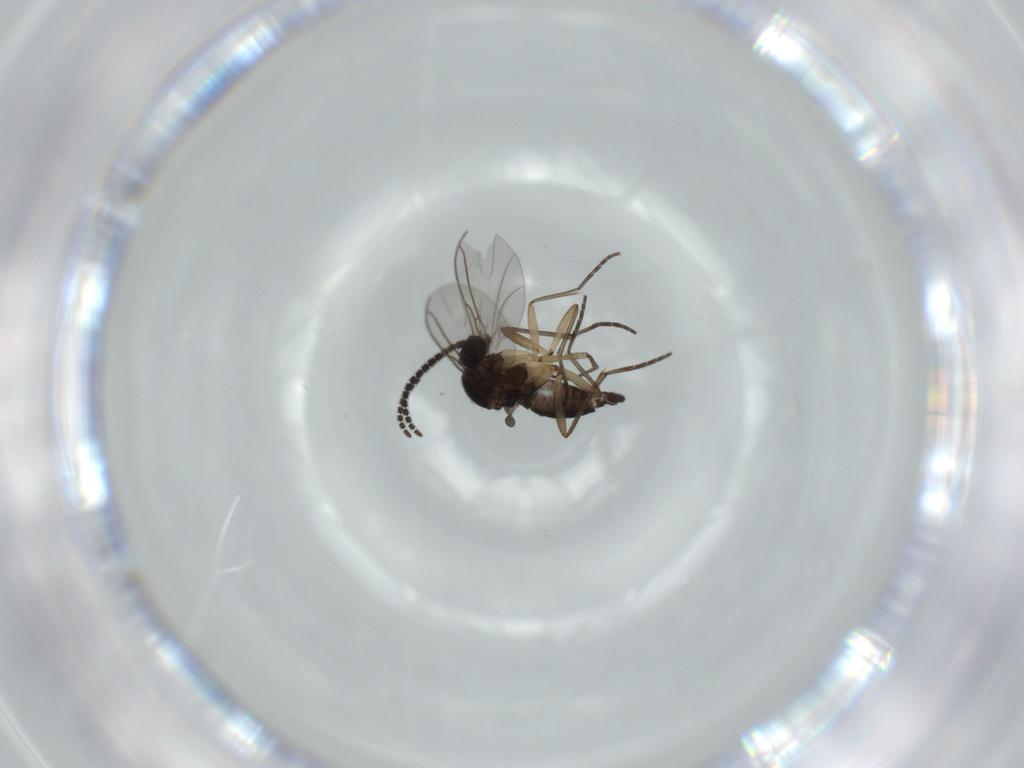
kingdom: Animalia
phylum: Arthropoda
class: Insecta
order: Diptera
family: Sciaridae
